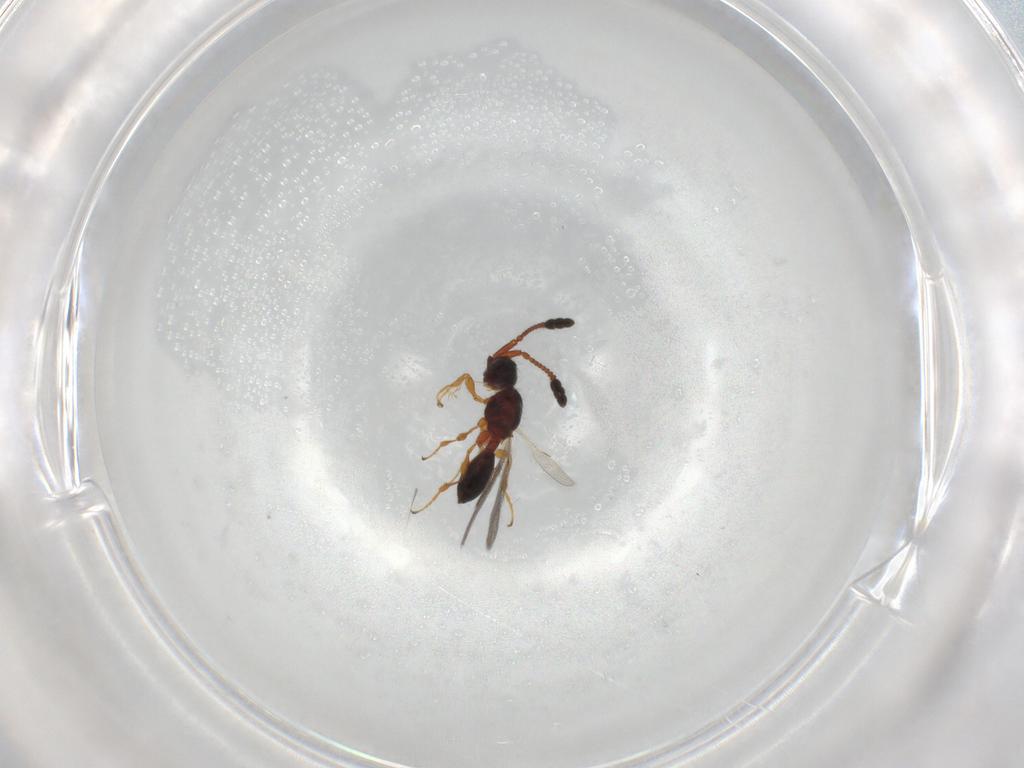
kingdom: Animalia
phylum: Arthropoda
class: Insecta
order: Hymenoptera
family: Diapriidae
